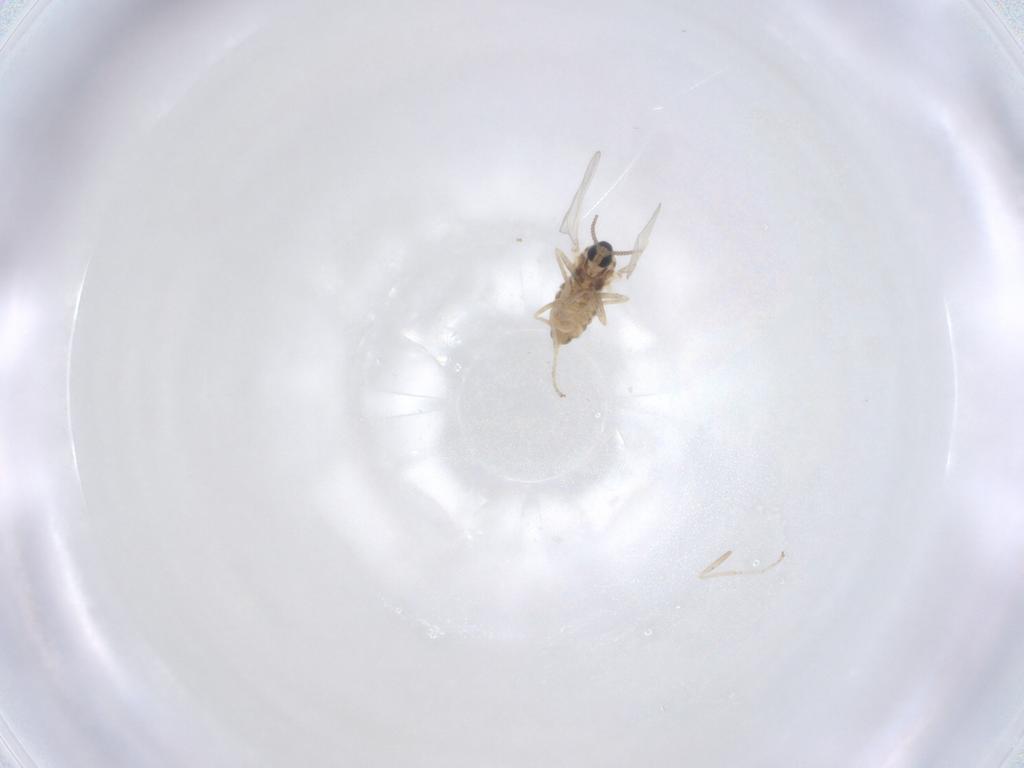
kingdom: Animalia
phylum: Arthropoda
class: Insecta
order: Diptera
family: Cecidomyiidae
